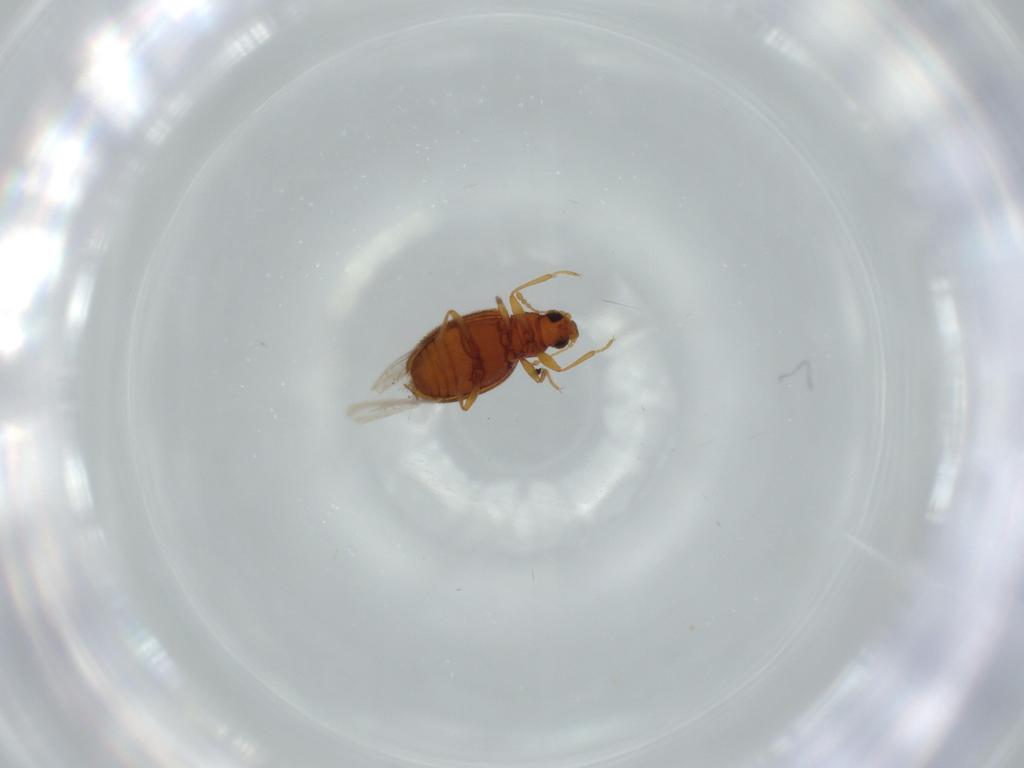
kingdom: Animalia
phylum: Arthropoda
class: Insecta
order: Coleoptera
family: Latridiidae
